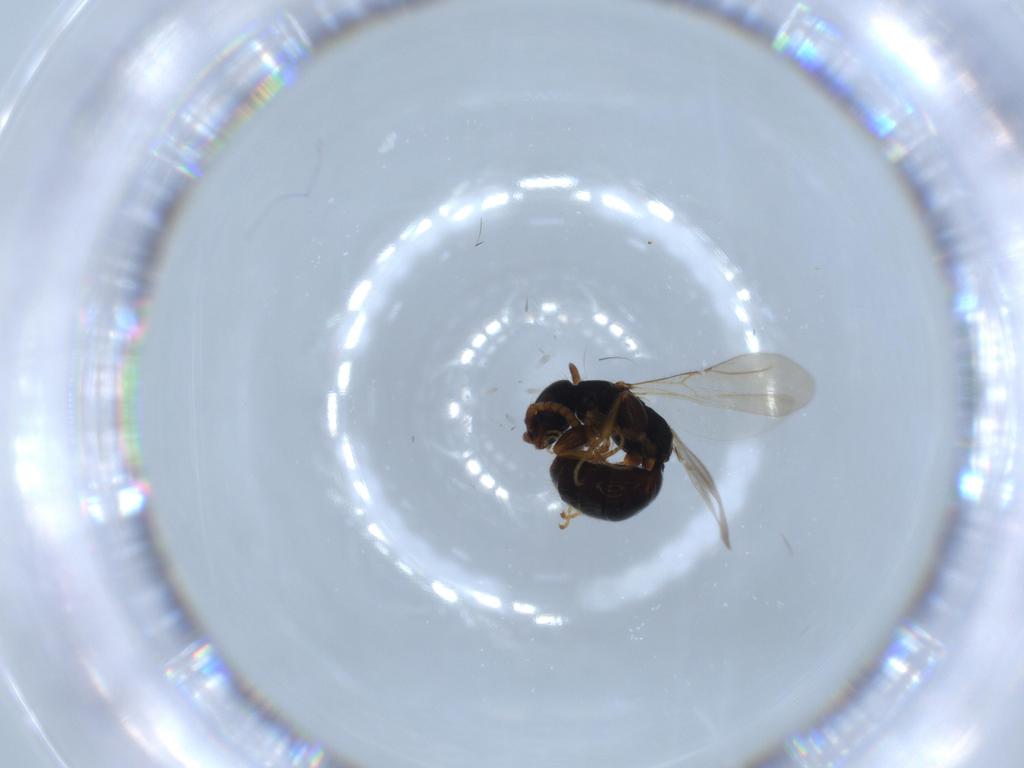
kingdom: Animalia
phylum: Arthropoda
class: Insecta
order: Hymenoptera
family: Bethylidae
